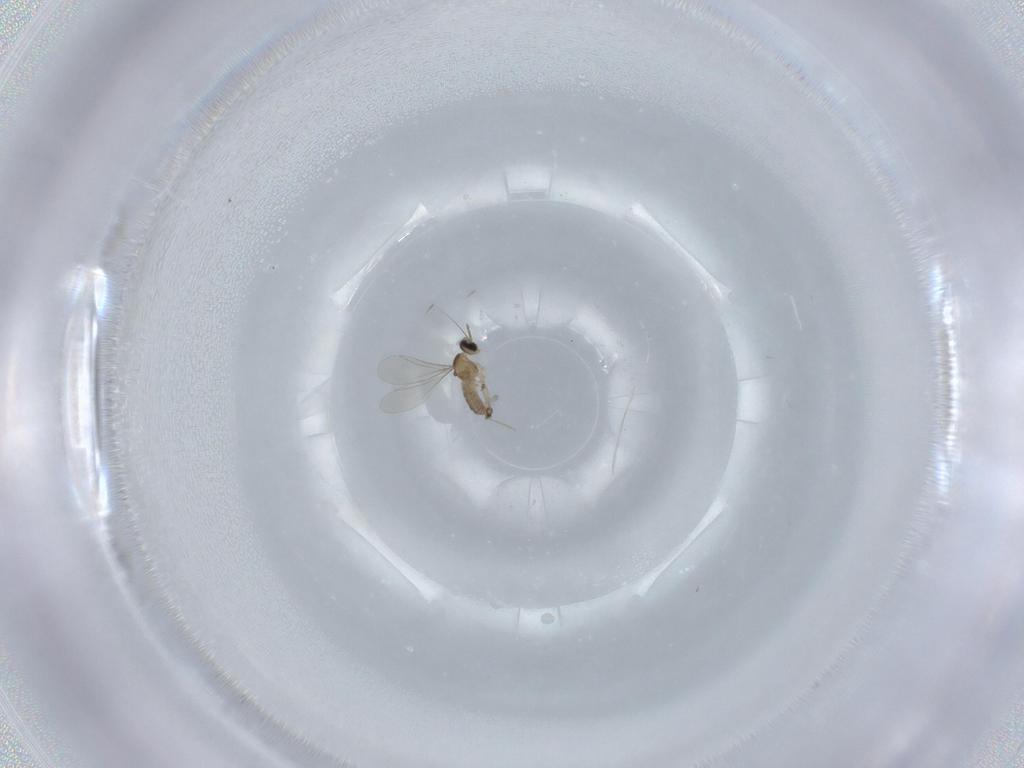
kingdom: Animalia
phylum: Arthropoda
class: Insecta
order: Diptera
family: Cecidomyiidae
